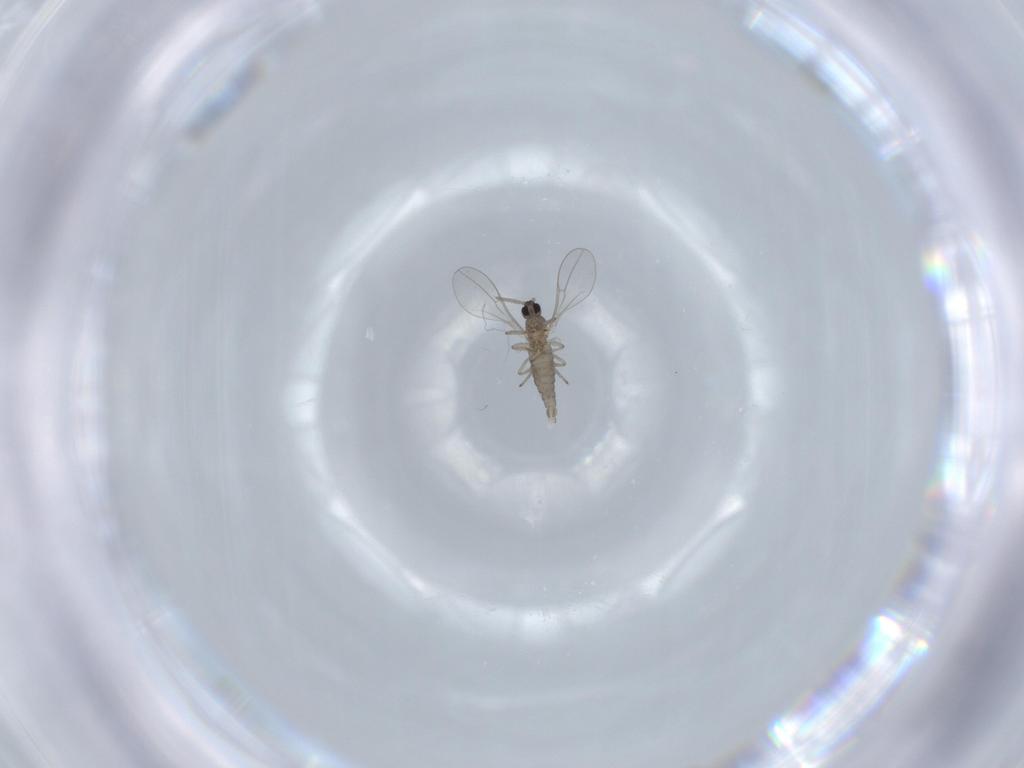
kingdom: Animalia
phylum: Arthropoda
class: Insecta
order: Diptera
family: Cecidomyiidae
